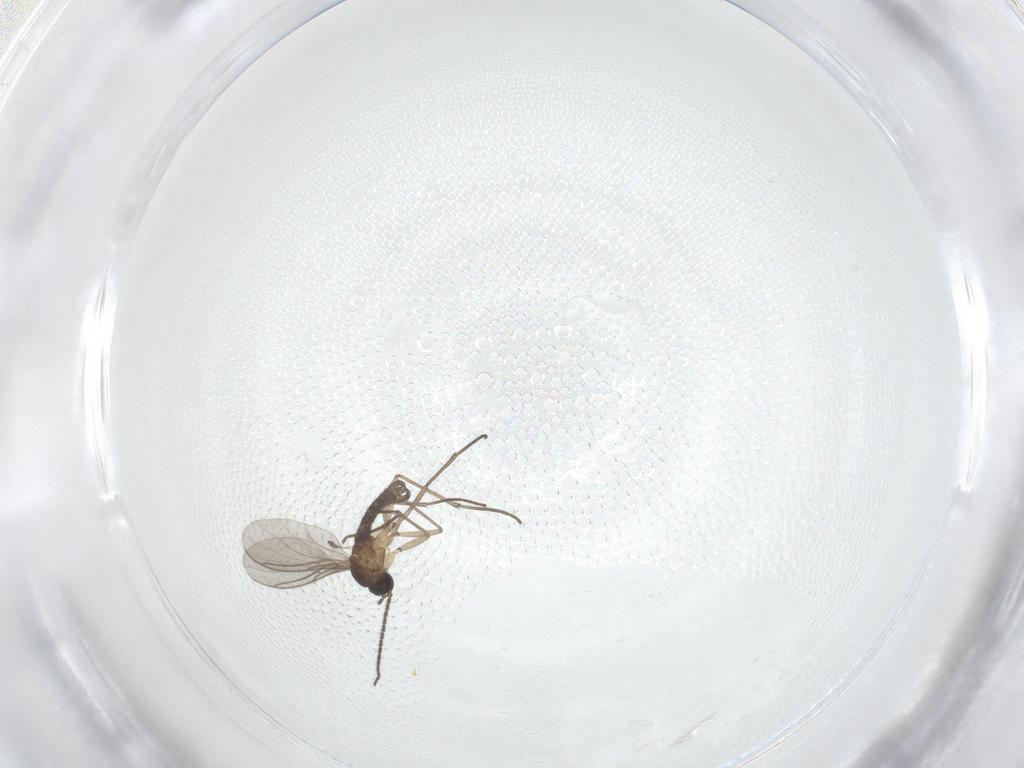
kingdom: Animalia
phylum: Arthropoda
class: Insecta
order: Diptera
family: Sciaridae
